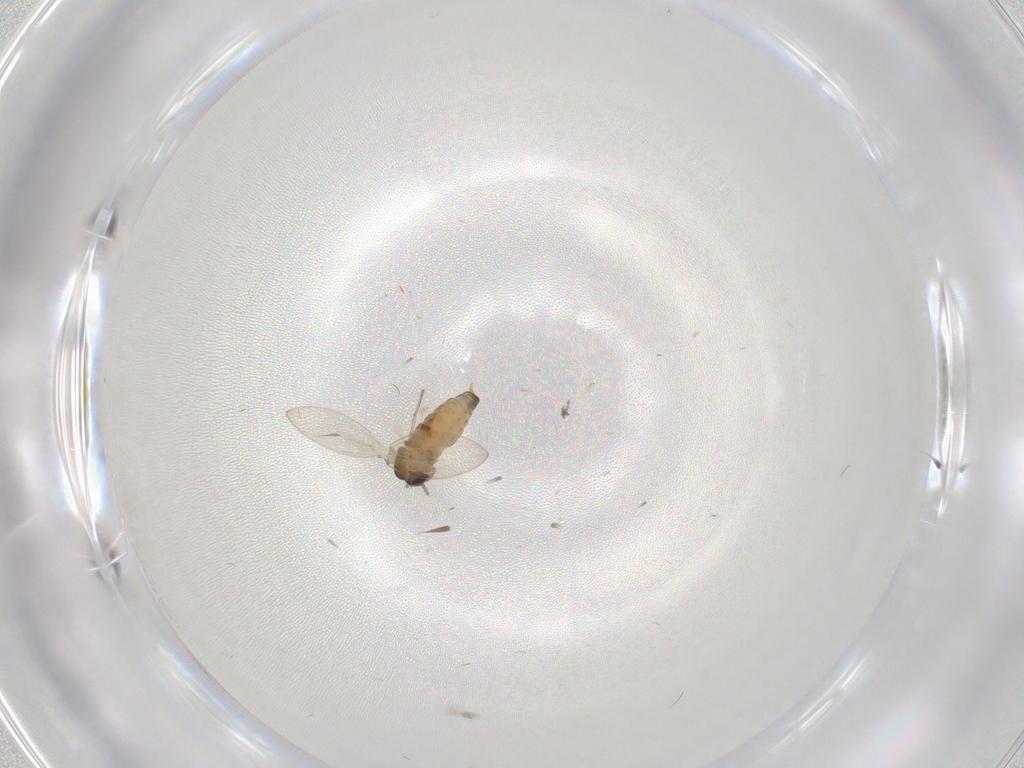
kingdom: Animalia
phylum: Arthropoda
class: Insecta
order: Diptera
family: Psychodidae
